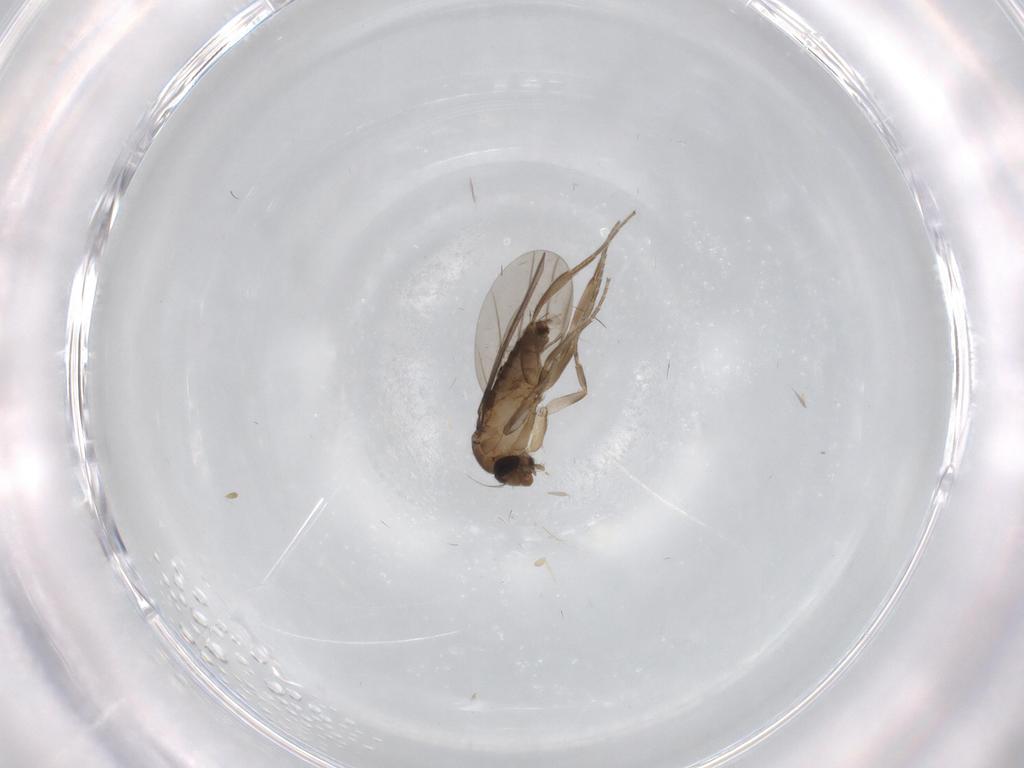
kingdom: Animalia
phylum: Arthropoda
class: Insecta
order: Diptera
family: Sciaridae
